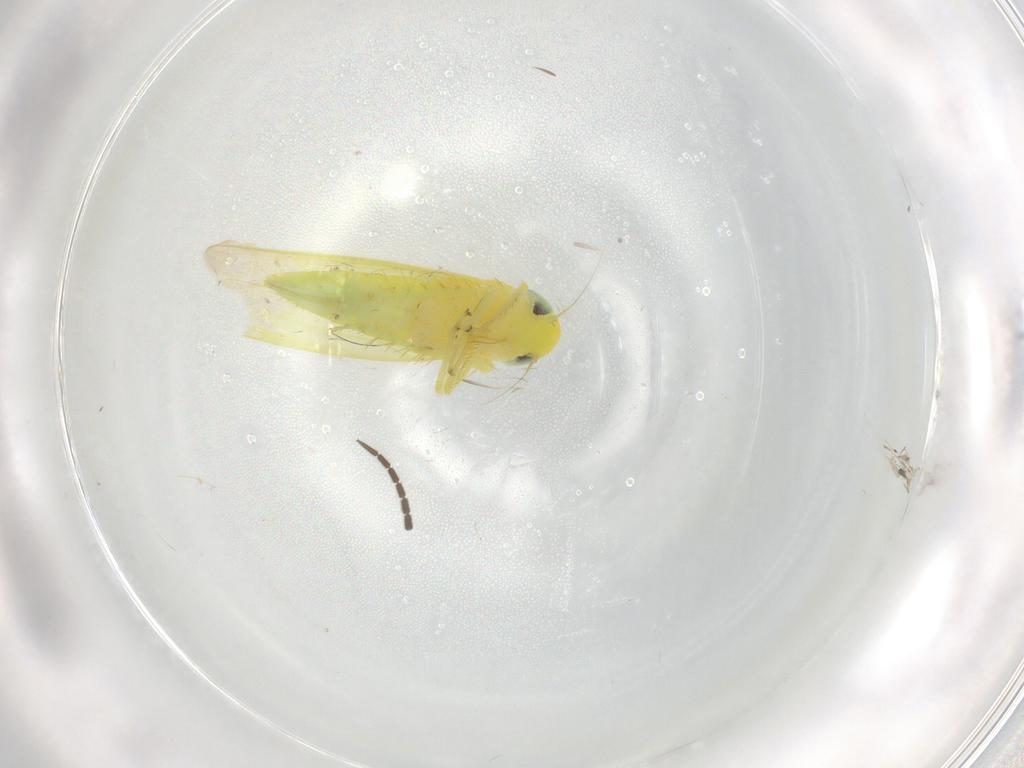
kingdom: Animalia
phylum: Arthropoda
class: Insecta
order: Hemiptera
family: Cicadellidae
